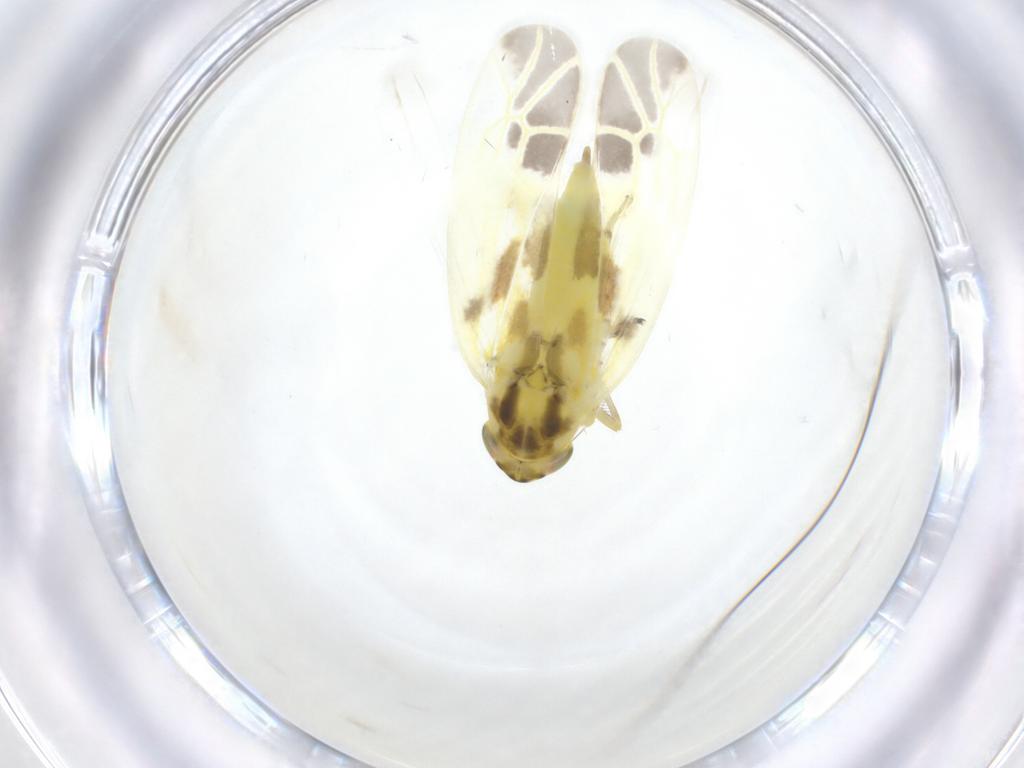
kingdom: Animalia
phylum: Arthropoda
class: Insecta
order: Hemiptera
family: Cicadellidae
